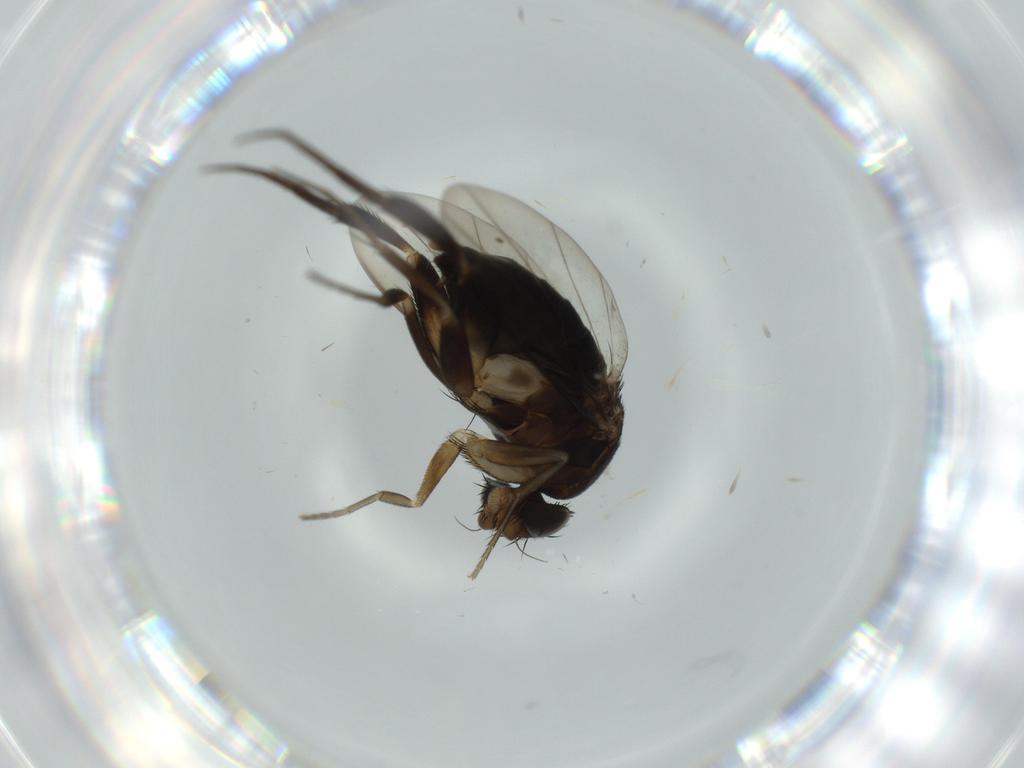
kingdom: Animalia
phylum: Arthropoda
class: Insecta
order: Diptera
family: Phoridae
